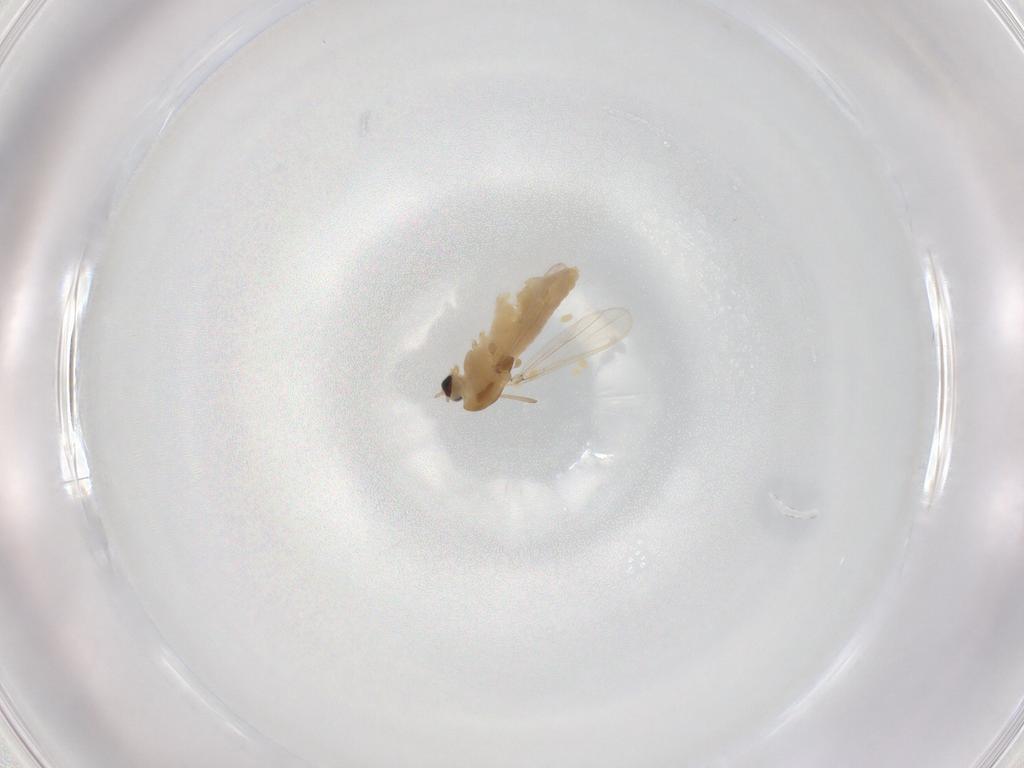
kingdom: Animalia
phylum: Arthropoda
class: Insecta
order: Diptera
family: Chironomidae
